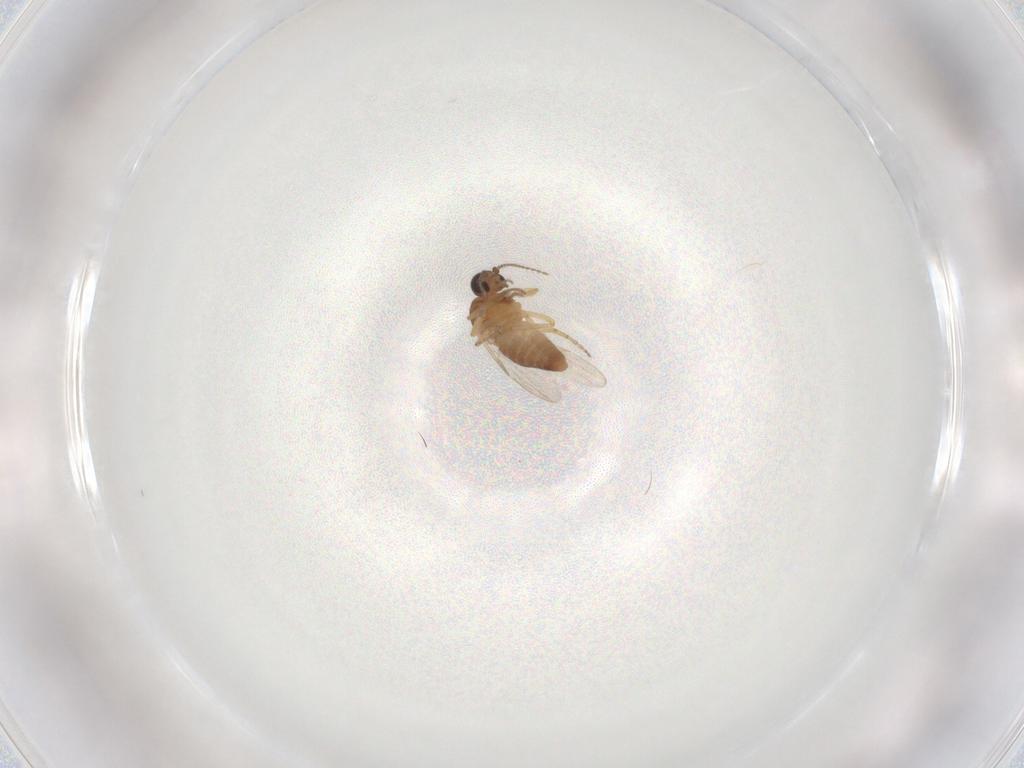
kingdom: Animalia
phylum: Arthropoda
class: Insecta
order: Diptera
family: Ceratopogonidae
